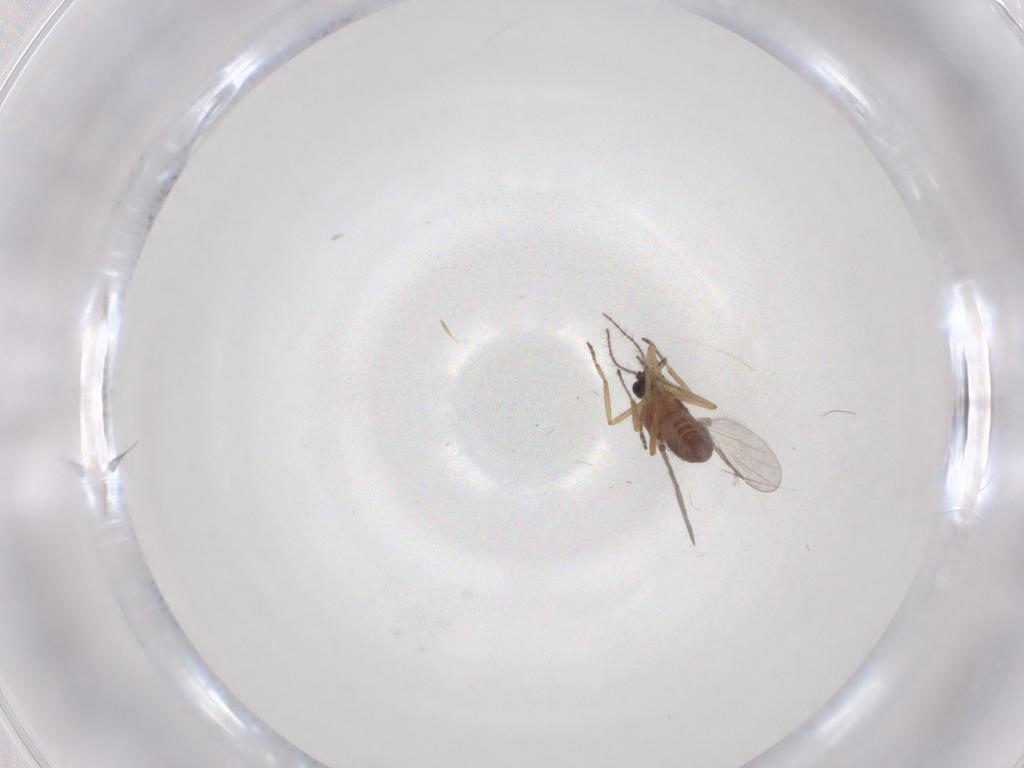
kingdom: Animalia
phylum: Arthropoda
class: Insecta
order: Diptera
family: Ceratopogonidae
